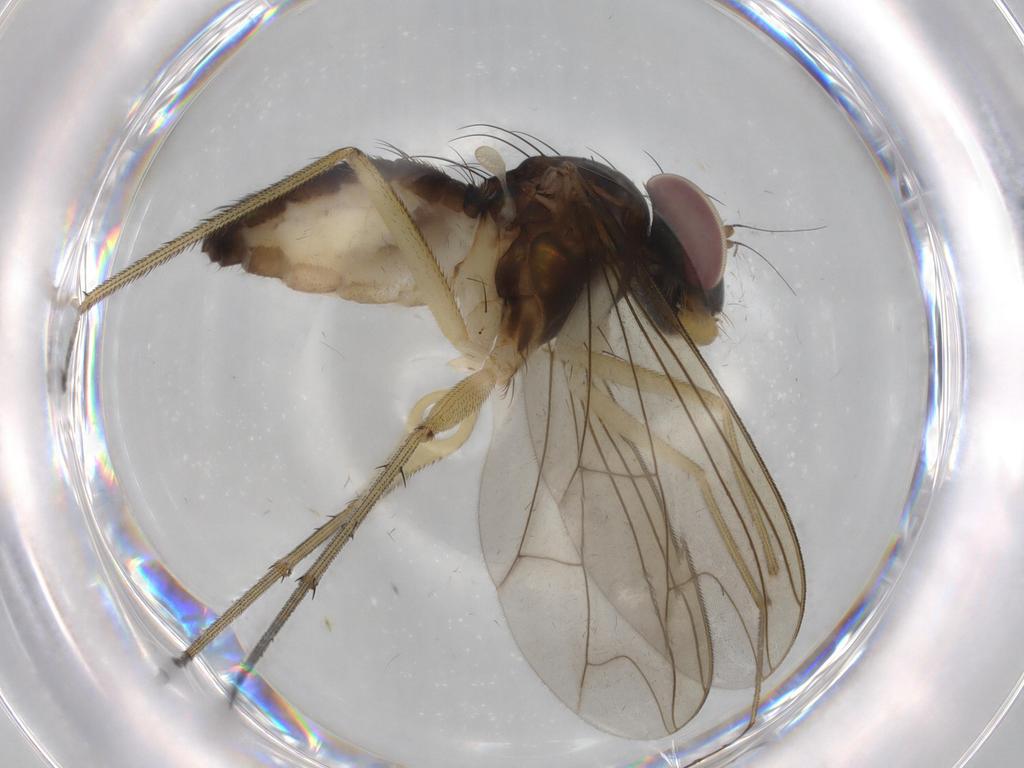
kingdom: Animalia
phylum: Arthropoda
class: Insecta
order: Diptera
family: Dolichopodidae
